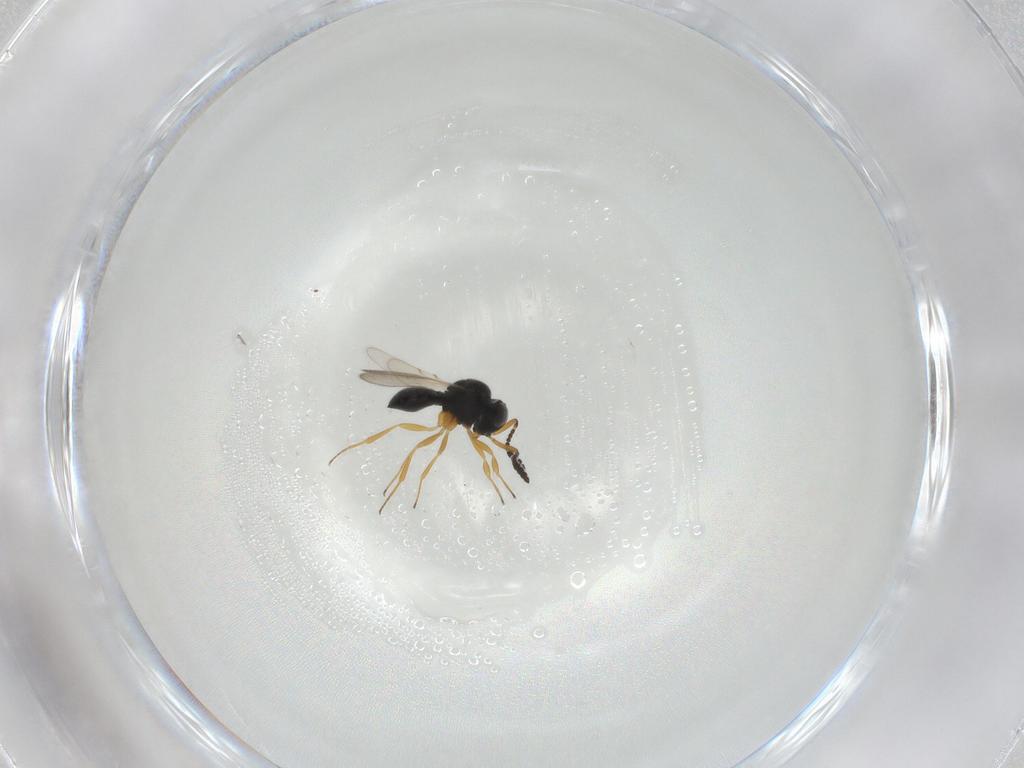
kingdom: Animalia
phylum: Arthropoda
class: Insecta
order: Hymenoptera
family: Scelionidae
